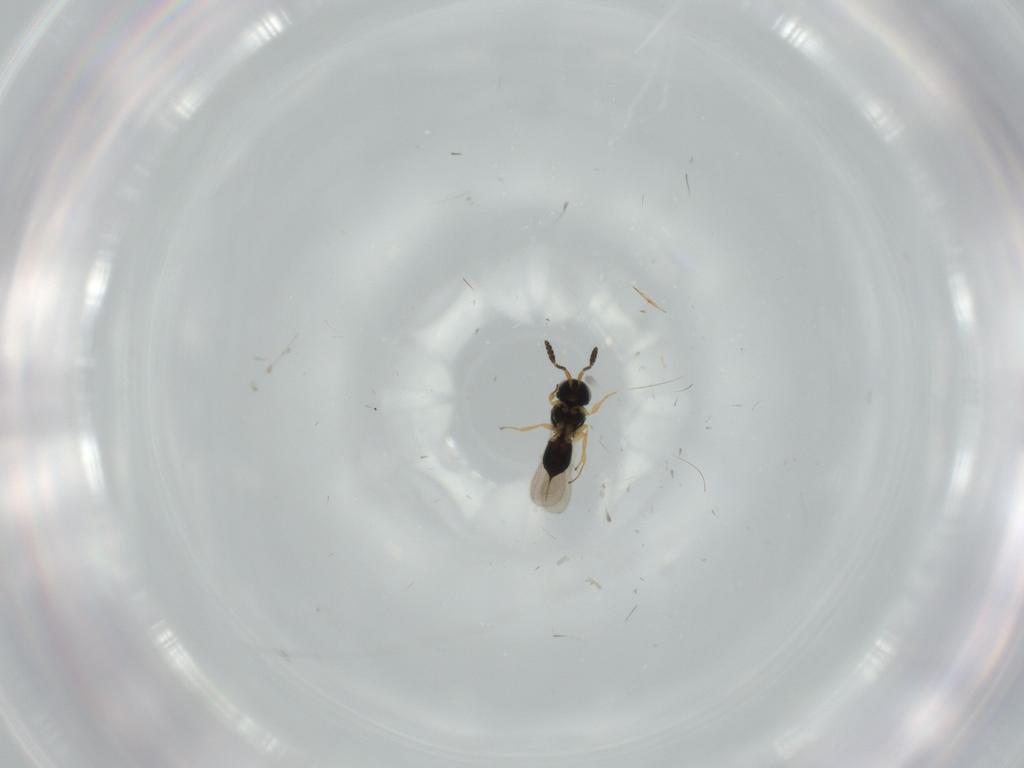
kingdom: Animalia
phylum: Arthropoda
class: Insecta
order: Hymenoptera
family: Scelionidae
